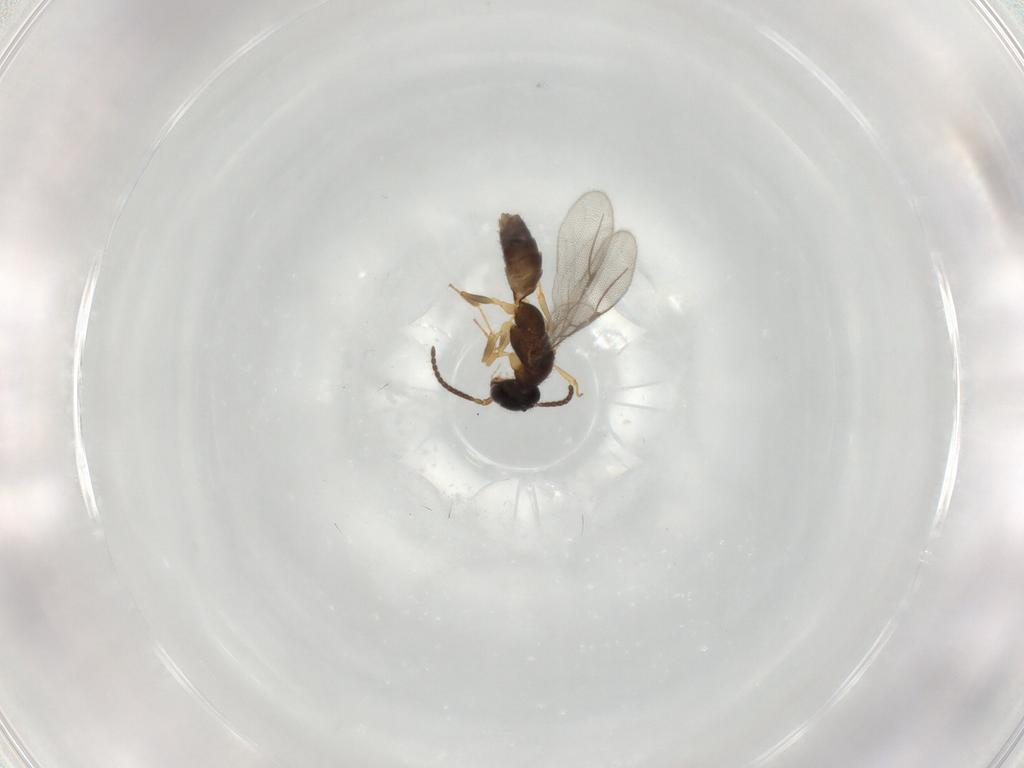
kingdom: Animalia
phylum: Arthropoda
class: Insecta
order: Hymenoptera
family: Bethylidae
